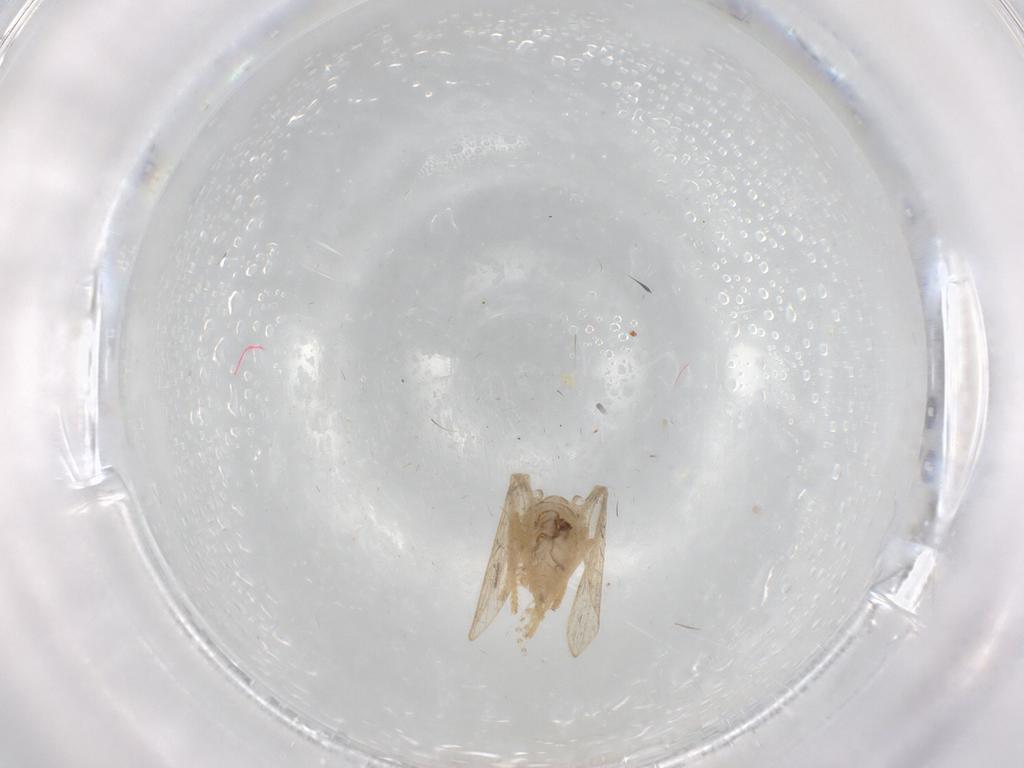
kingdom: Animalia
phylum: Arthropoda
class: Insecta
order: Diptera
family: Psychodidae
